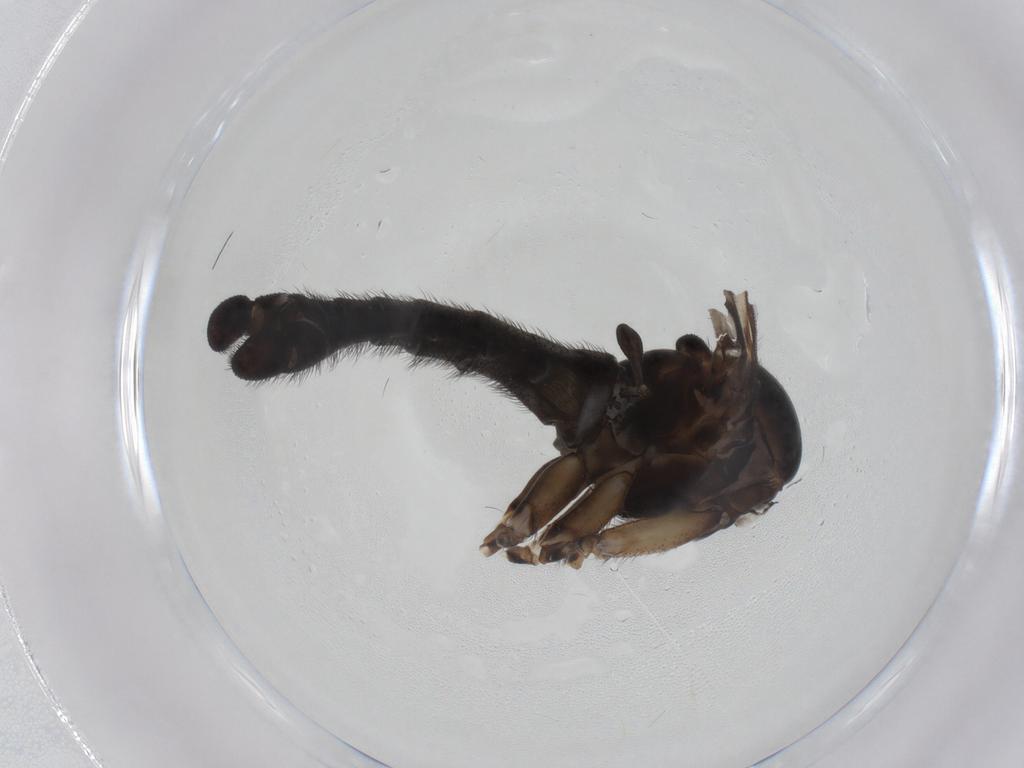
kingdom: Animalia
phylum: Arthropoda
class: Insecta
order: Diptera
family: Sciaridae
